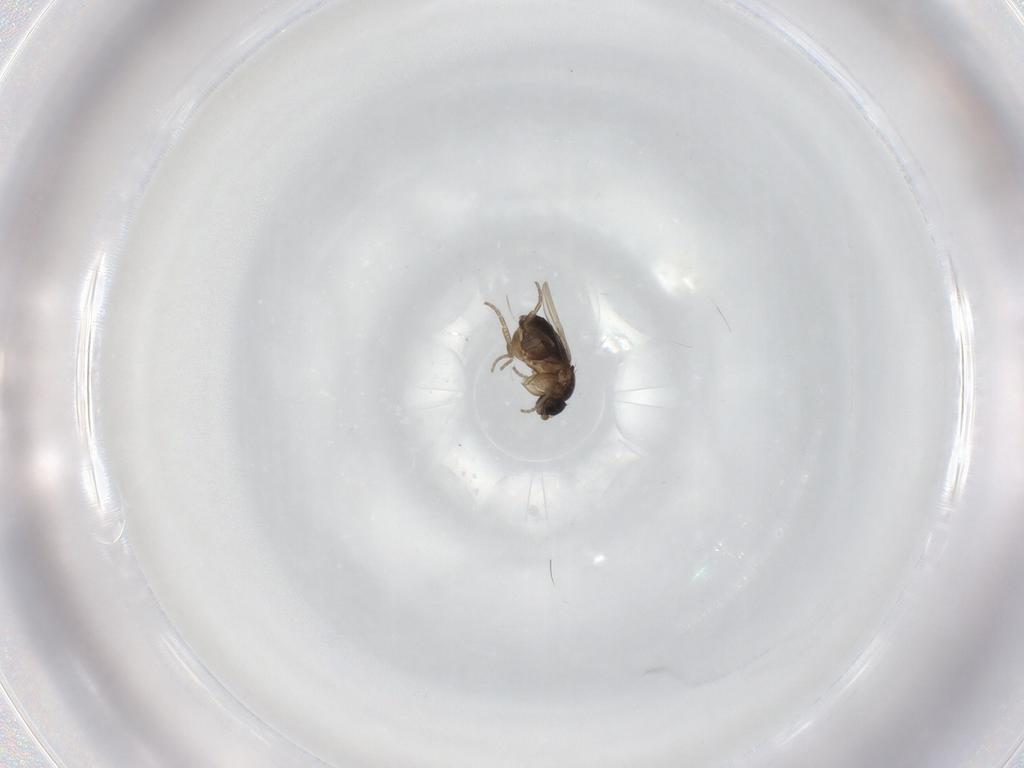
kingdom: Animalia
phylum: Arthropoda
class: Insecta
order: Diptera
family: Phoridae
